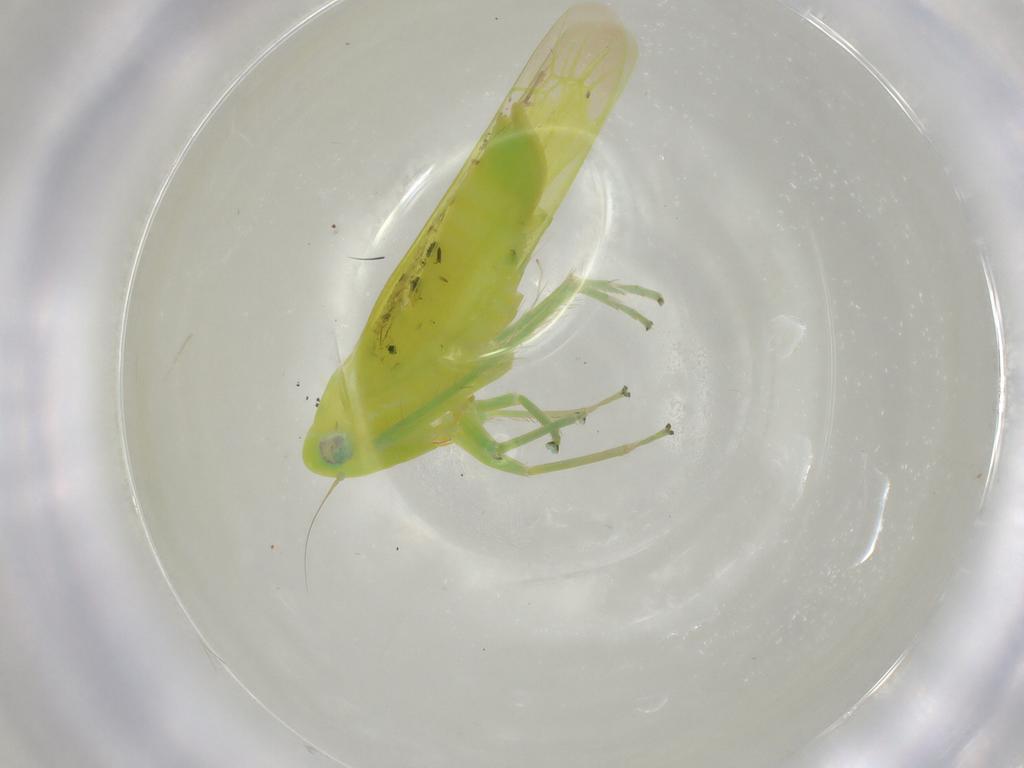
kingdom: Animalia
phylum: Arthropoda
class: Insecta
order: Hemiptera
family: Cicadellidae
